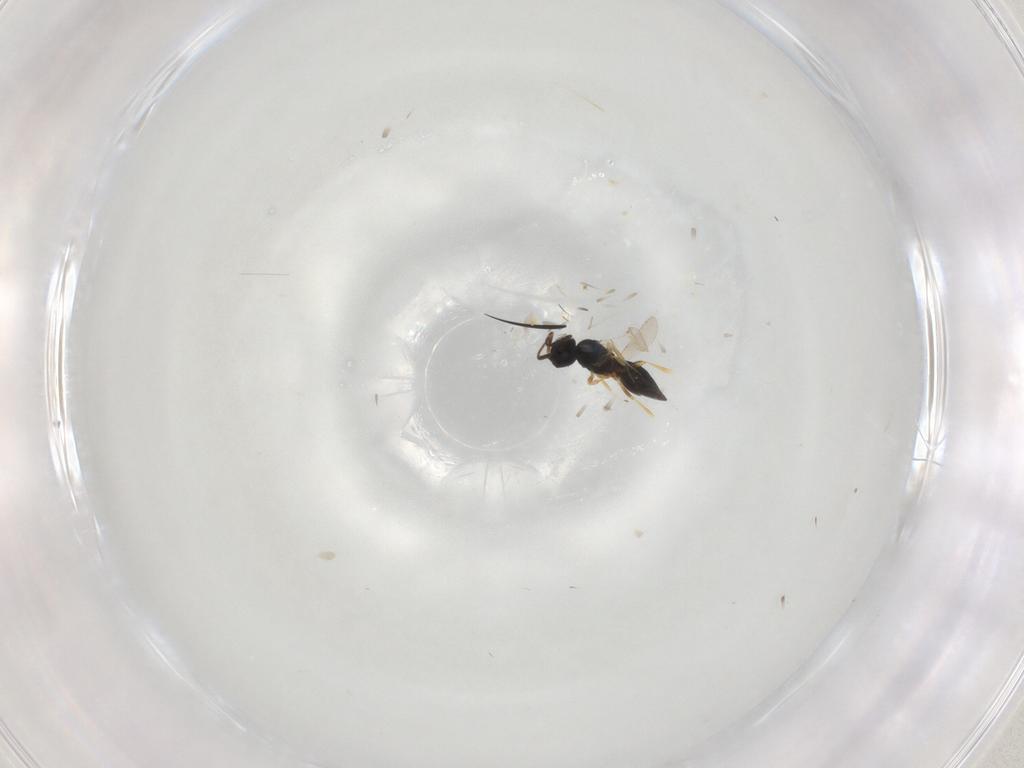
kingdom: Animalia
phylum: Arthropoda
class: Insecta
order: Hymenoptera
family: Scelionidae
